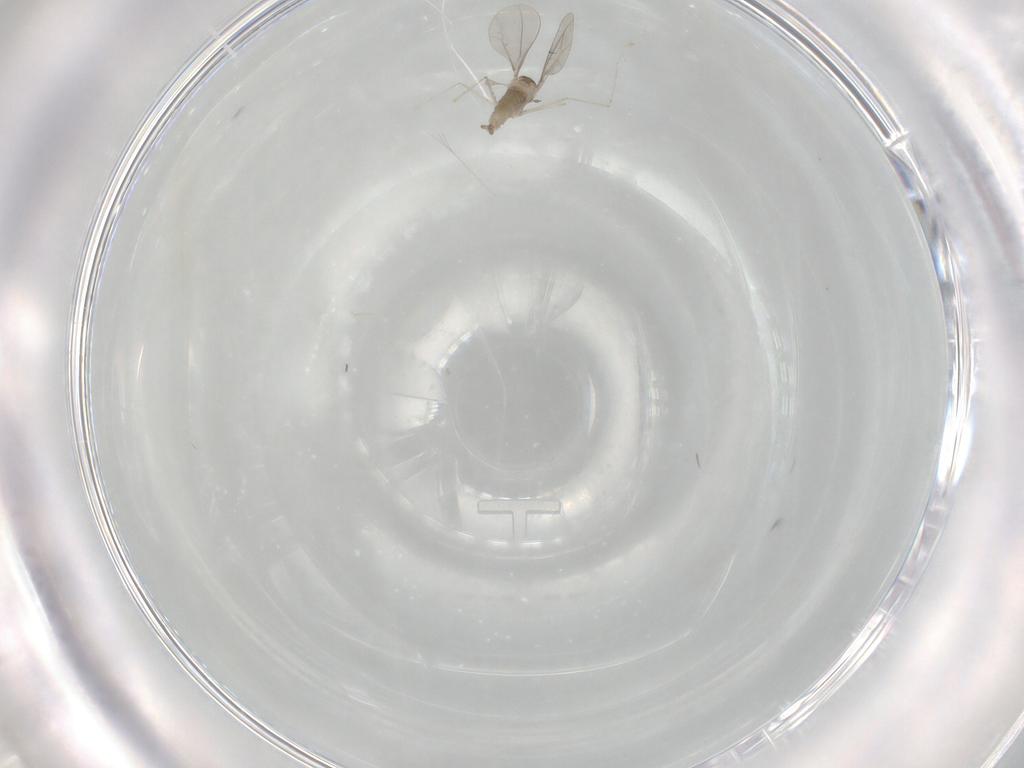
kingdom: Animalia
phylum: Arthropoda
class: Insecta
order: Diptera
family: Cecidomyiidae
